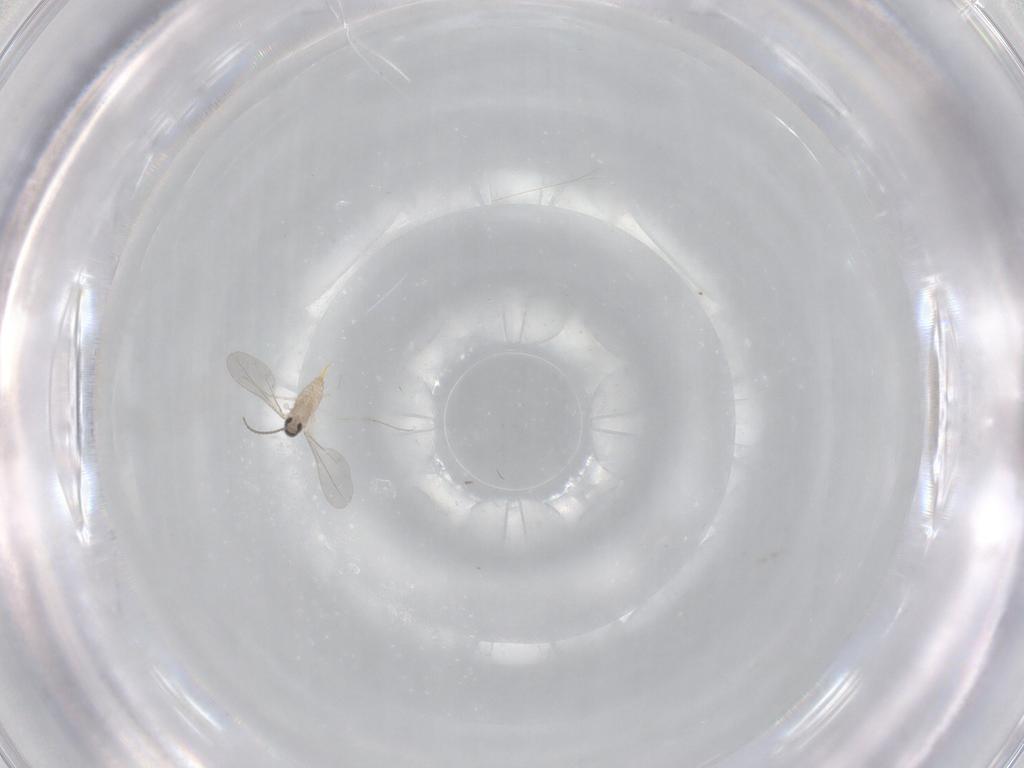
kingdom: Animalia
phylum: Arthropoda
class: Insecta
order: Diptera
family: Cecidomyiidae
